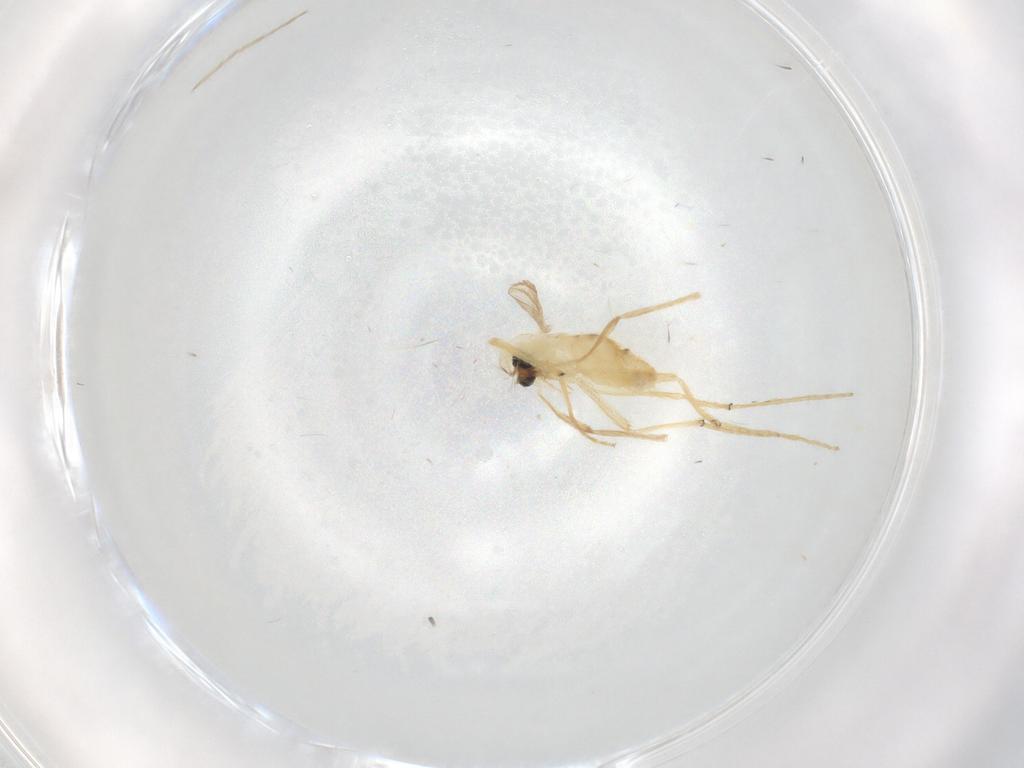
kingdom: Animalia
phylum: Arthropoda
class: Insecta
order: Diptera
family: Chironomidae
